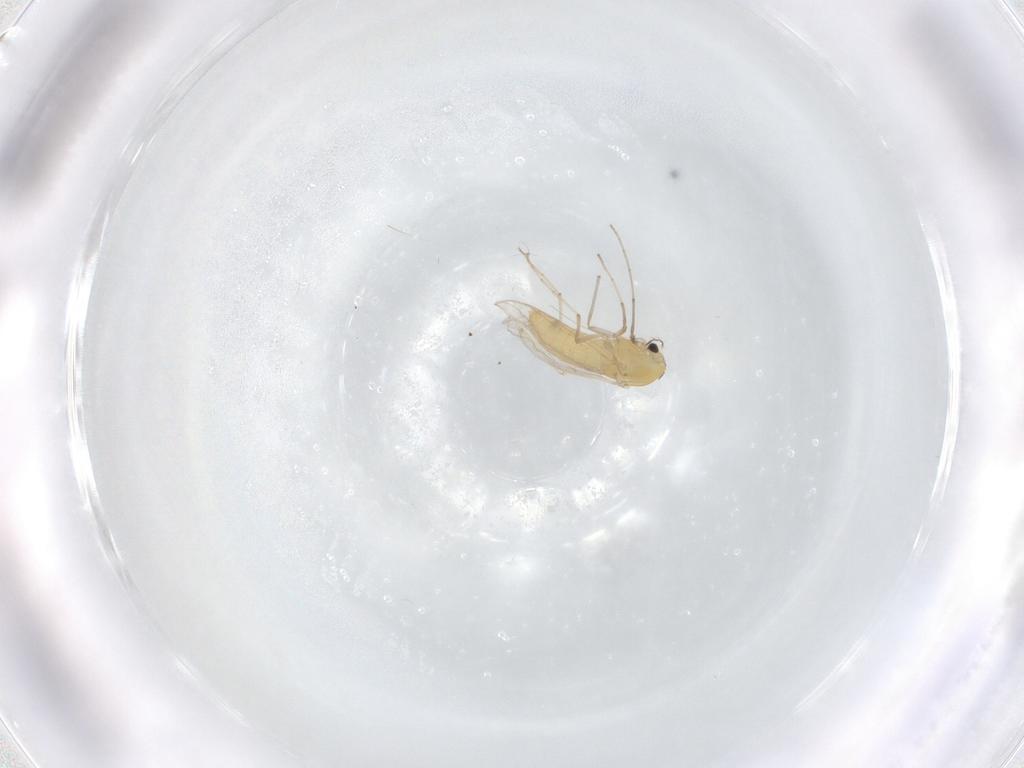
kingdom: Animalia
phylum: Arthropoda
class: Insecta
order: Diptera
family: Chironomidae
